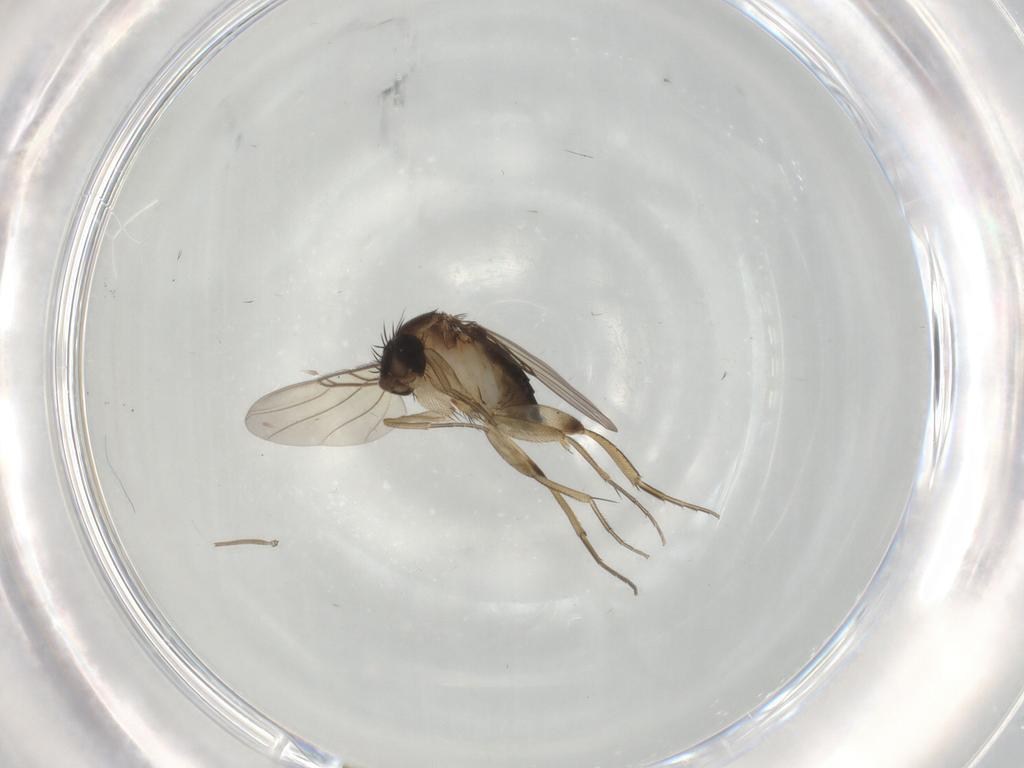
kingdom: Animalia
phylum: Arthropoda
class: Insecta
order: Diptera
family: Phoridae
